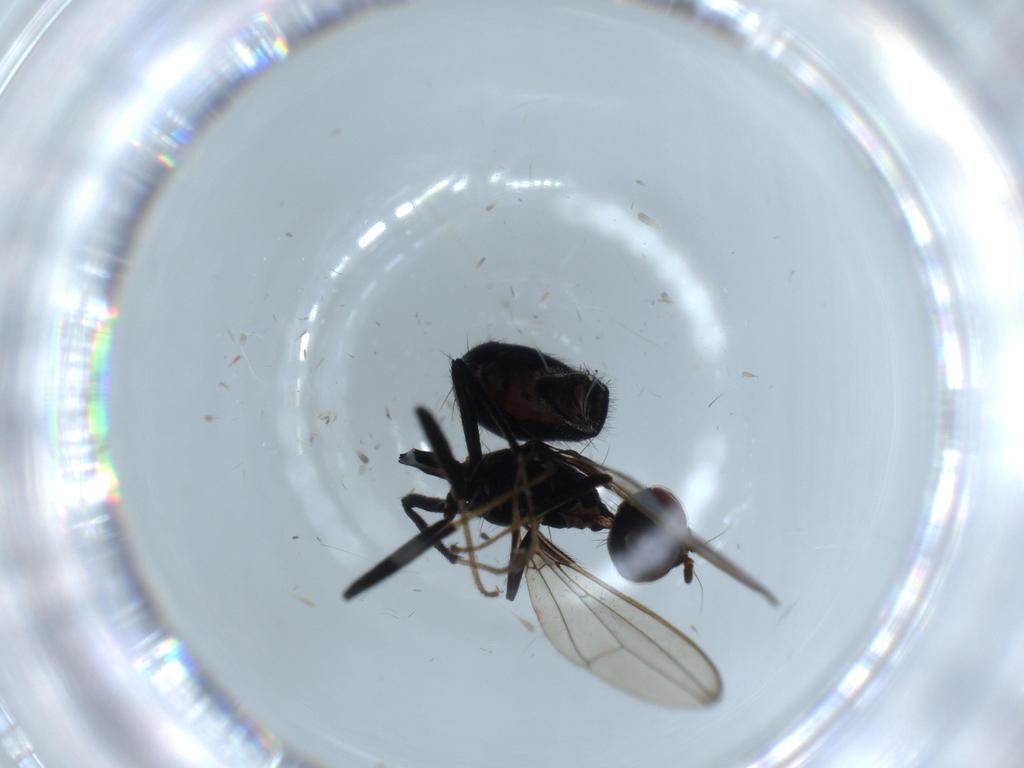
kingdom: Animalia
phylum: Arthropoda
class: Insecta
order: Diptera
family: Richardiidae
